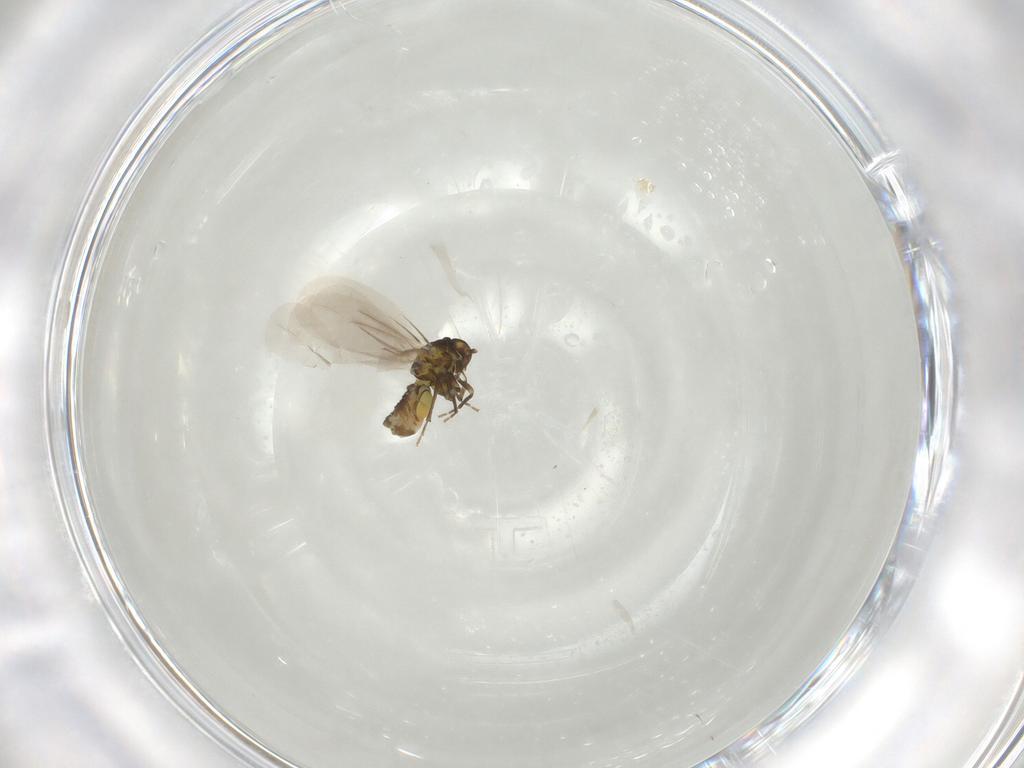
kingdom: Animalia
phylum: Arthropoda
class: Insecta
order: Hemiptera
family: Aleyrodidae
